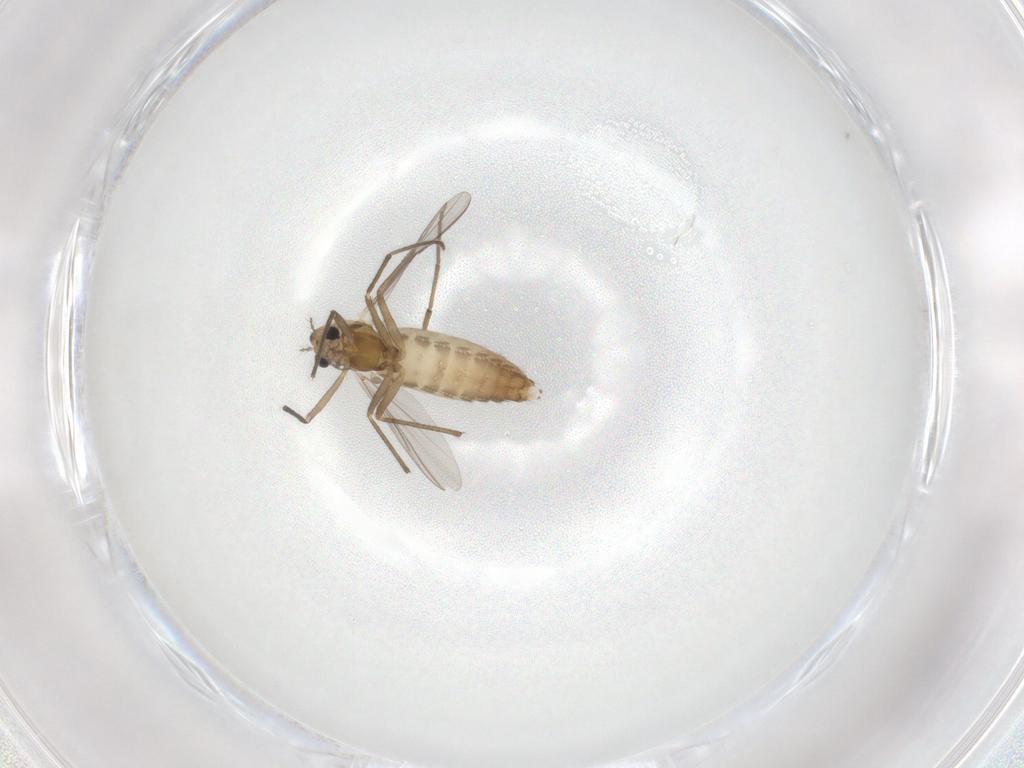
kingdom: Animalia
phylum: Arthropoda
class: Insecta
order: Diptera
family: Chironomidae
